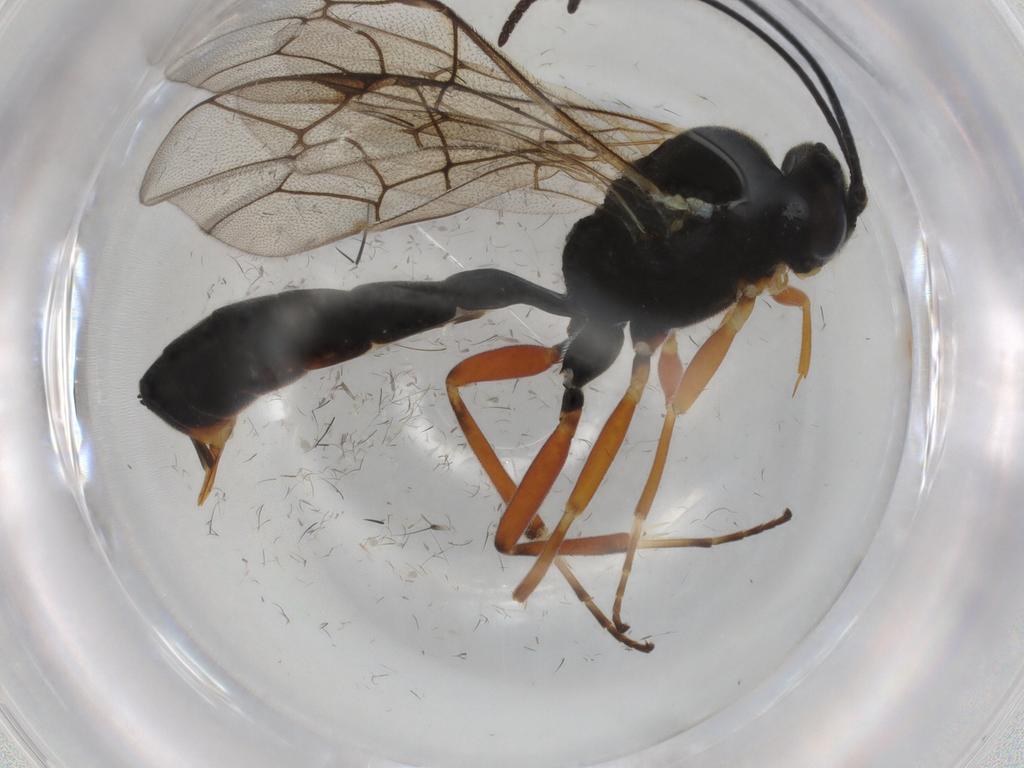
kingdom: Animalia
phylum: Arthropoda
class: Insecta
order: Hymenoptera
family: Ichneumonidae
